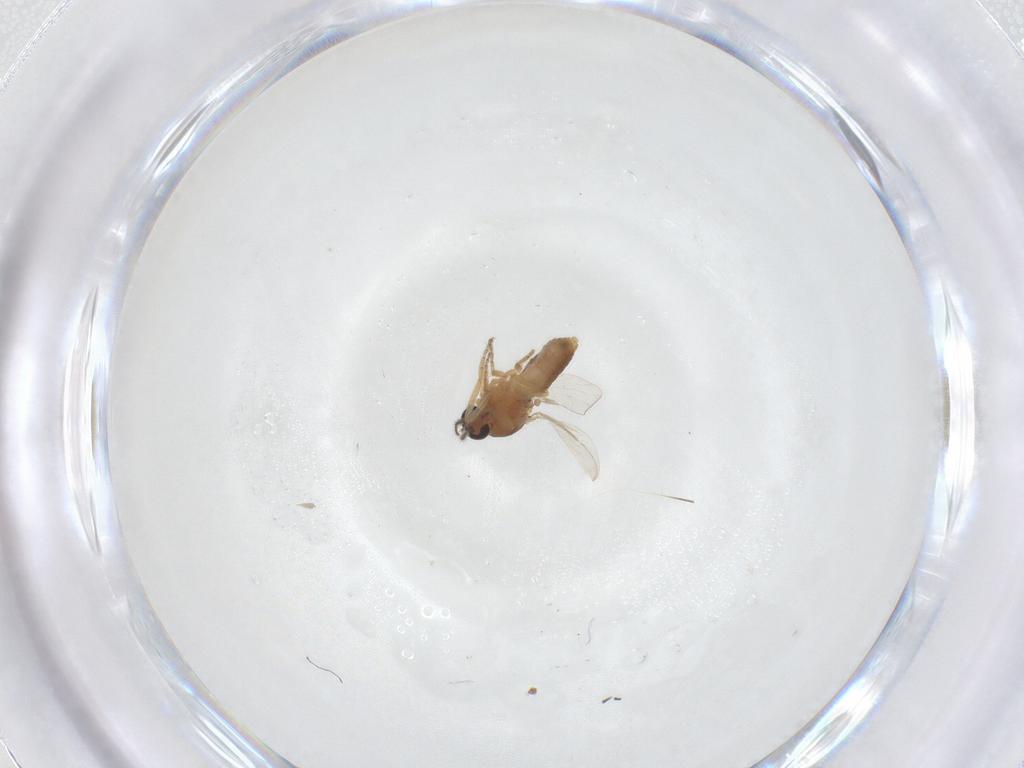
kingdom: Animalia
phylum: Arthropoda
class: Insecta
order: Diptera
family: Ceratopogonidae
